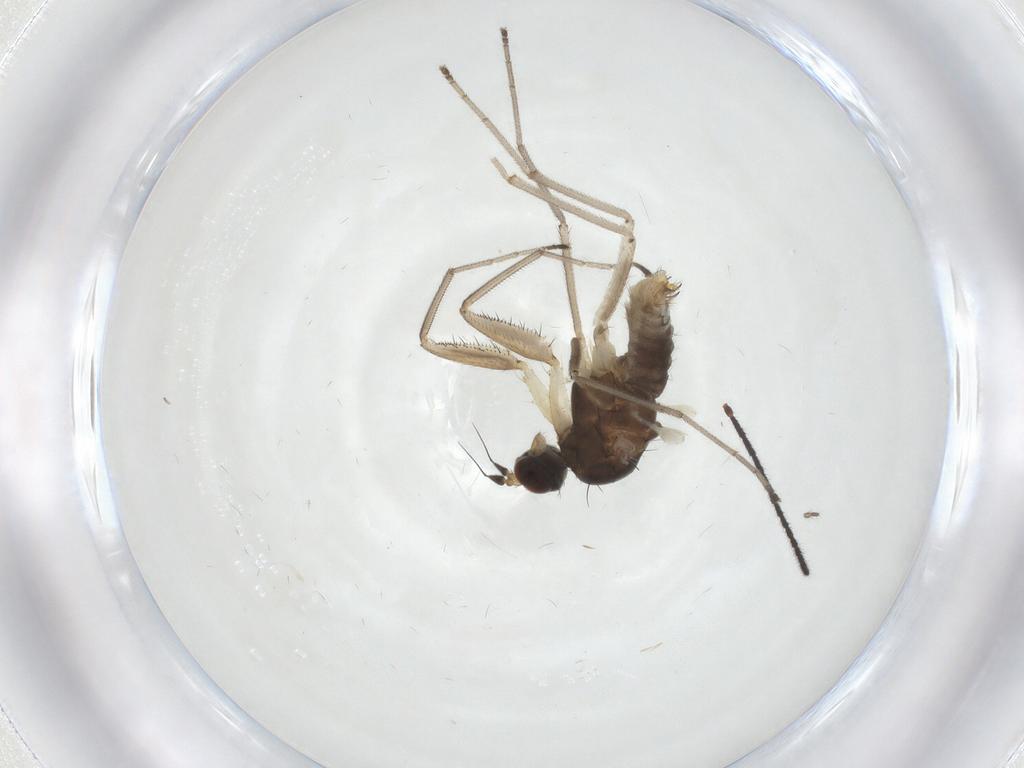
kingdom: Animalia
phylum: Arthropoda
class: Insecta
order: Diptera
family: Empididae
